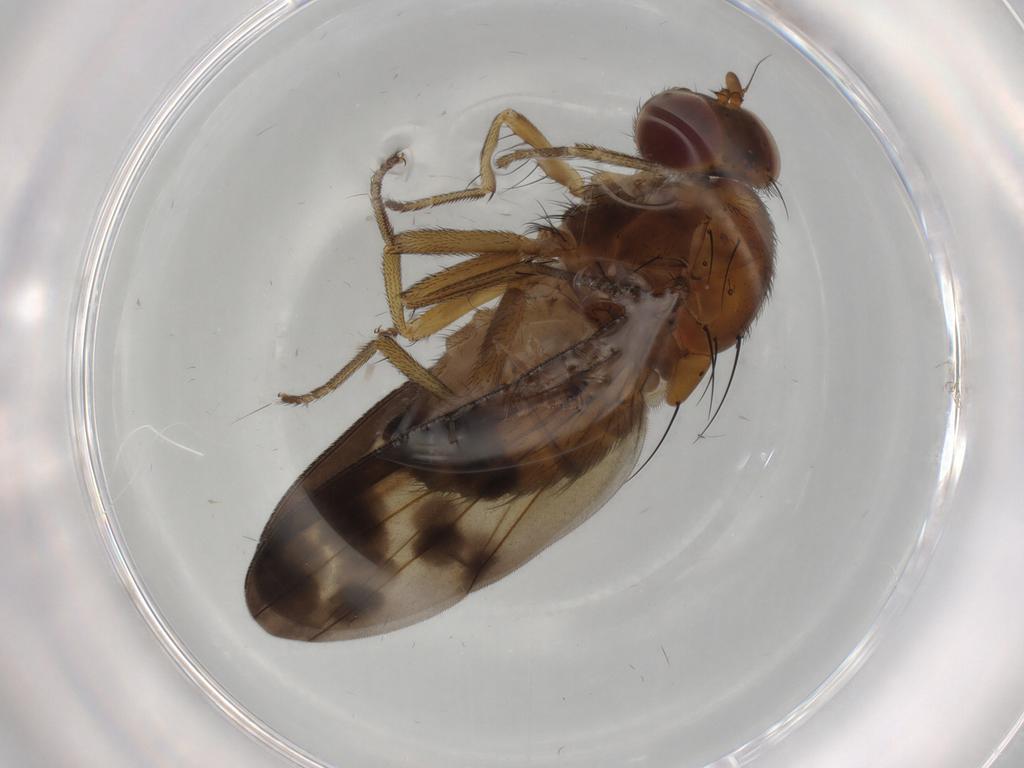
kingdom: Animalia
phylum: Arthropoda
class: Insecta
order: Diptera
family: Chironomidae
